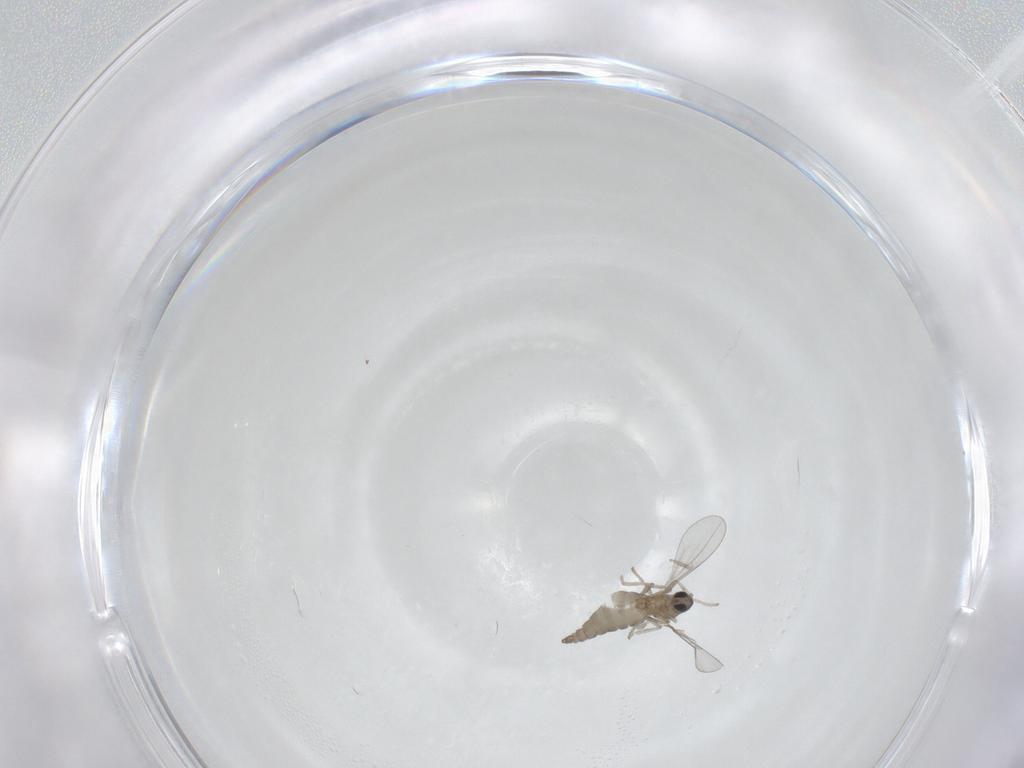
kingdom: Animalia
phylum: Arthropoda
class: Insecta
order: Diptera
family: Cecidomyiidae
